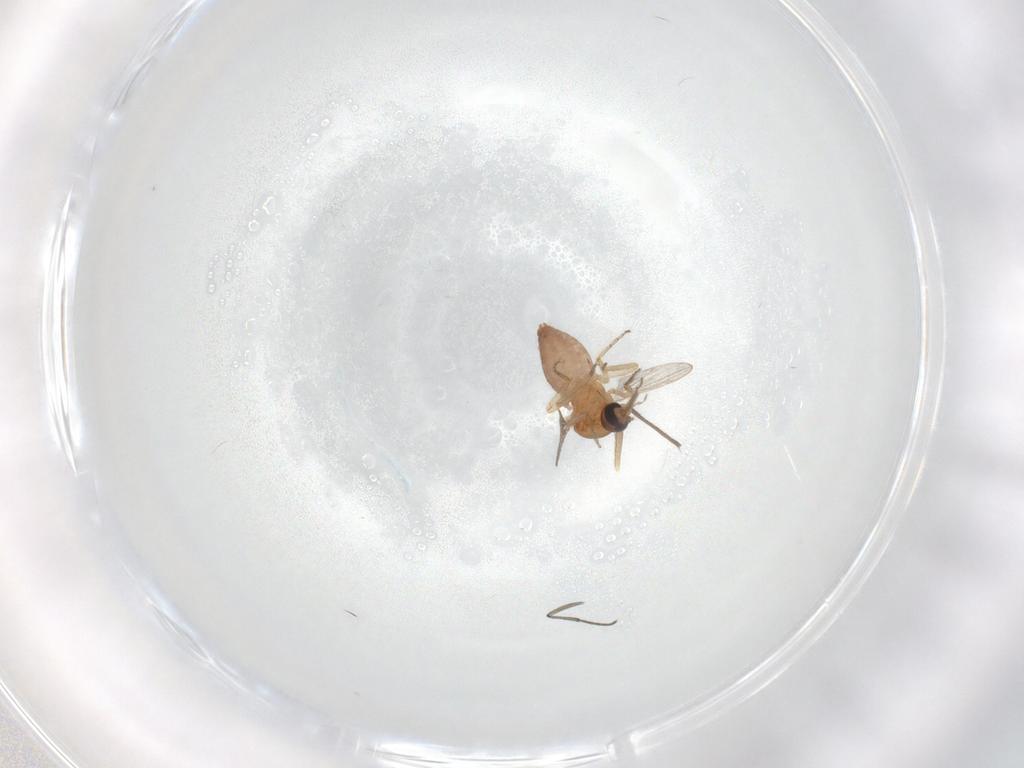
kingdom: Animalia
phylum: Arthropoda
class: Insecta
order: Diptera
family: Ceratopogonidae
